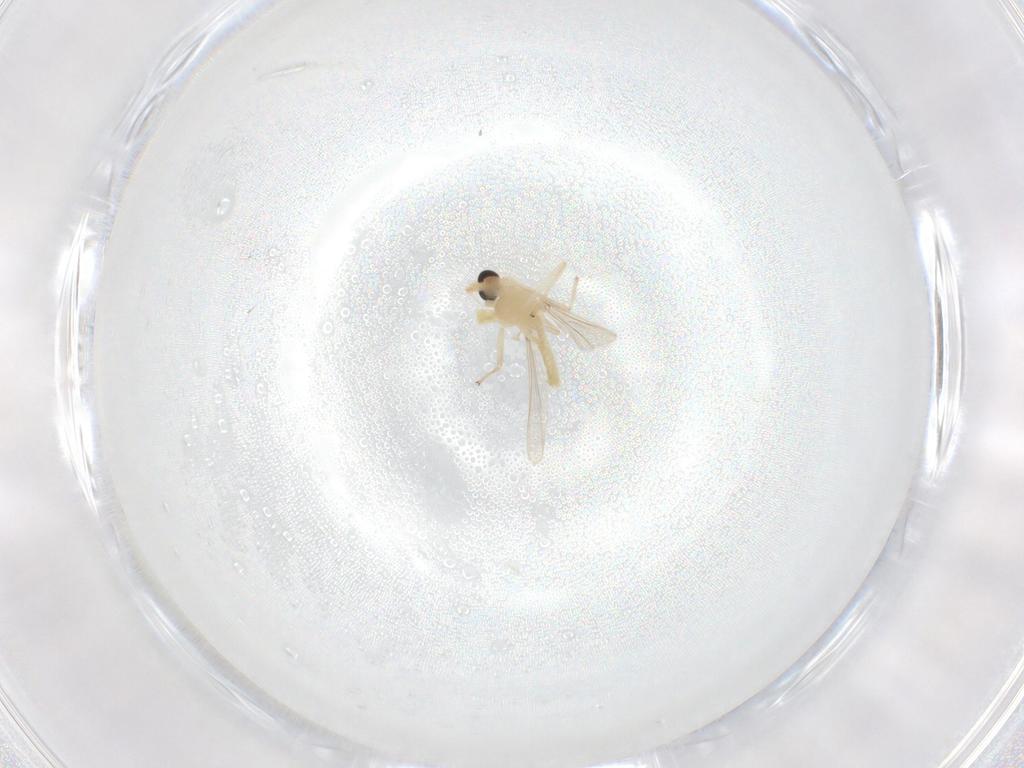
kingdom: Animalia
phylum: Arthropoda
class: Insecta
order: Diptera
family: Chironomidae
